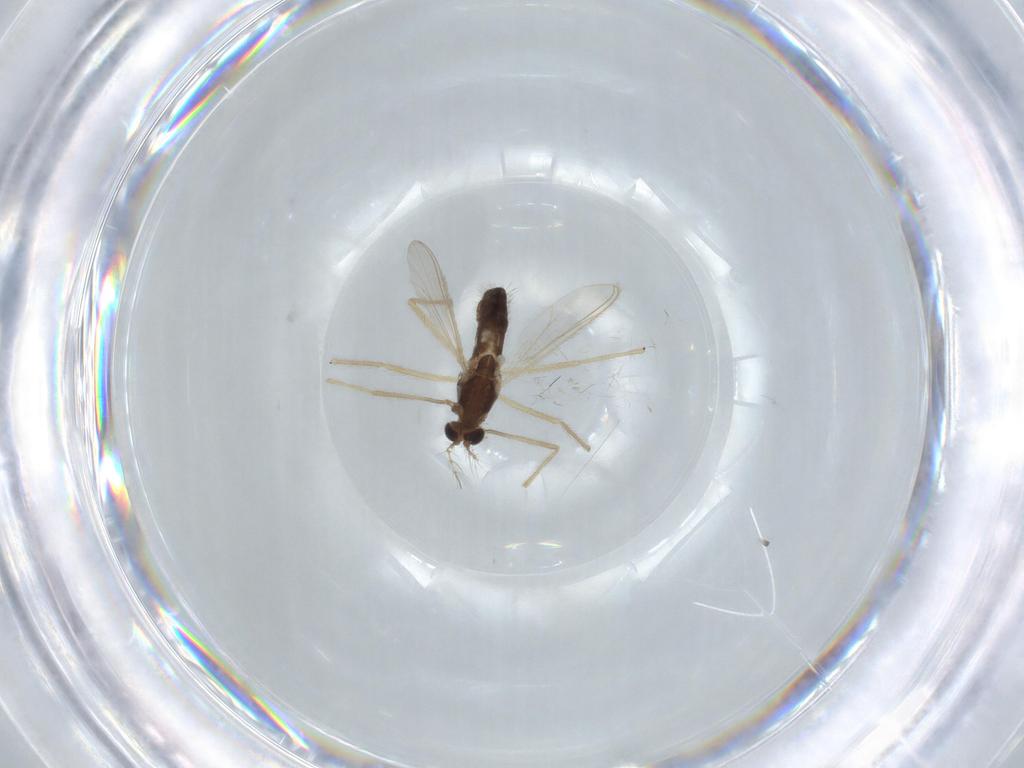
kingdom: Animalia
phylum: Arthropoda
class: Insecta
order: Diptera
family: Chironomidae
